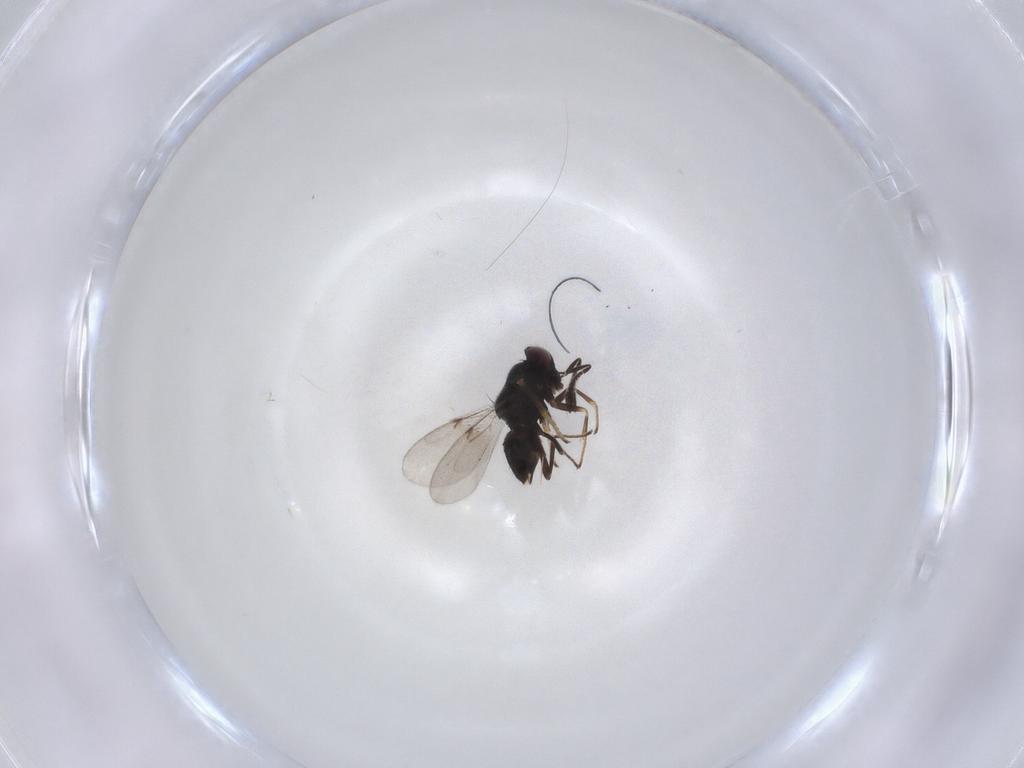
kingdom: Animalia
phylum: Arthropoda
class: Insecta
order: Hymenoptera
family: Encyrtidae
